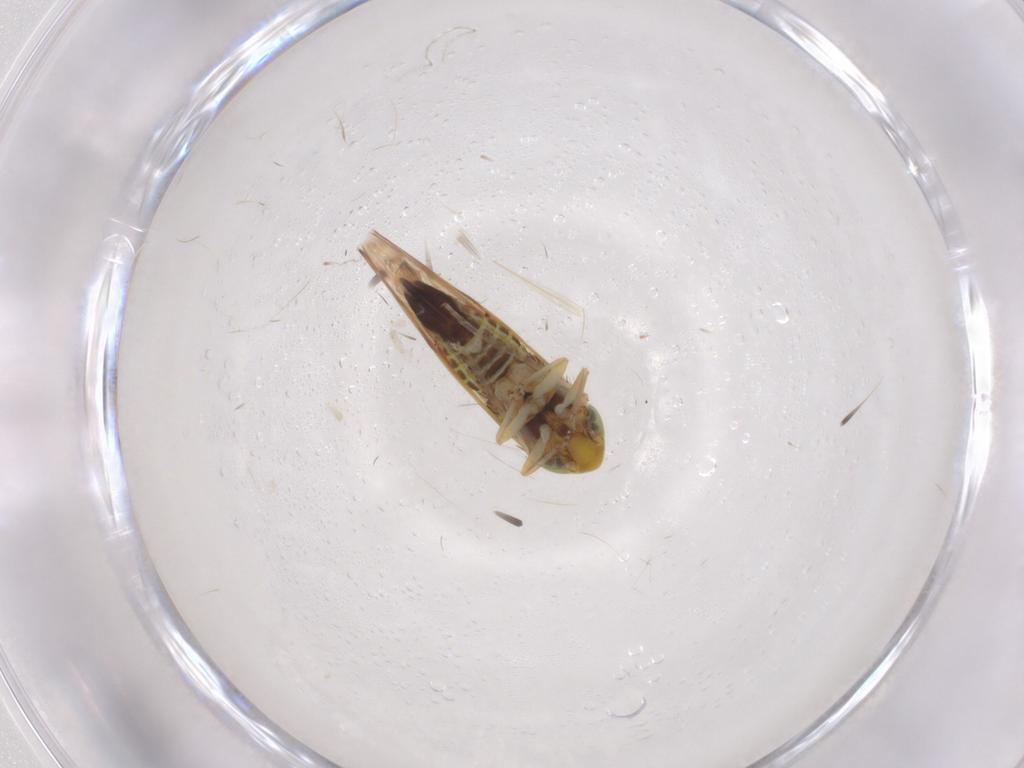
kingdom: Animalia
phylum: Arthropoda
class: Insecta
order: Hemiptera
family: Cicadellidae
